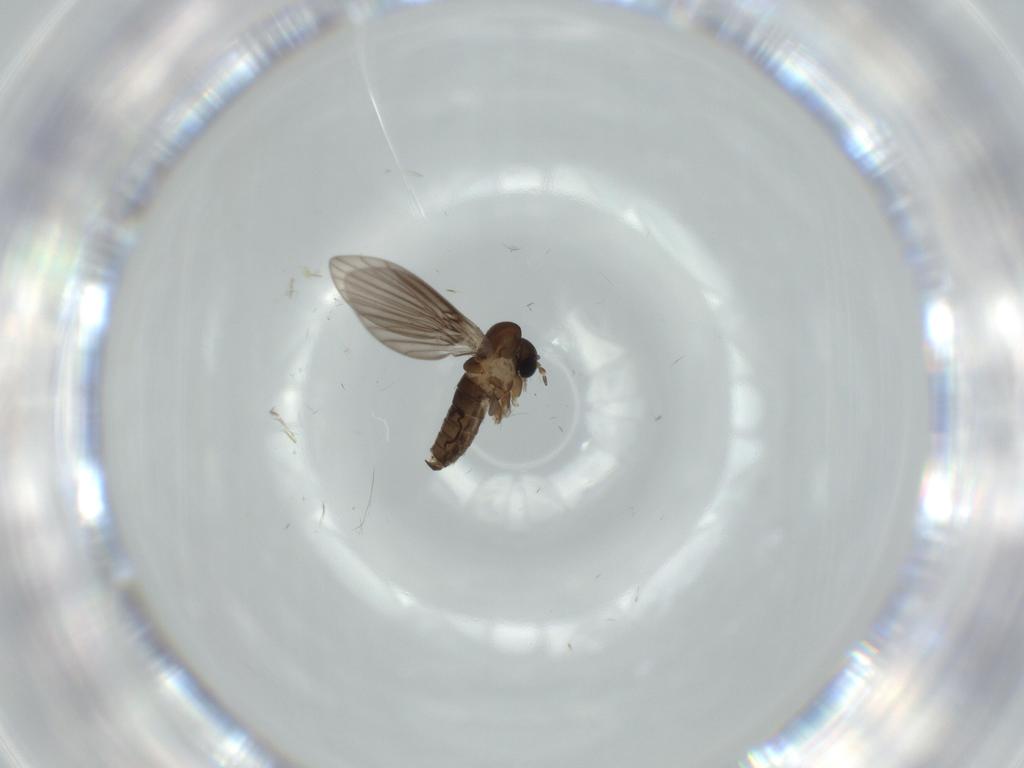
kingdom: Animalia
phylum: Arthropoda
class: Insecta
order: Diptera
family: Psychodidae
